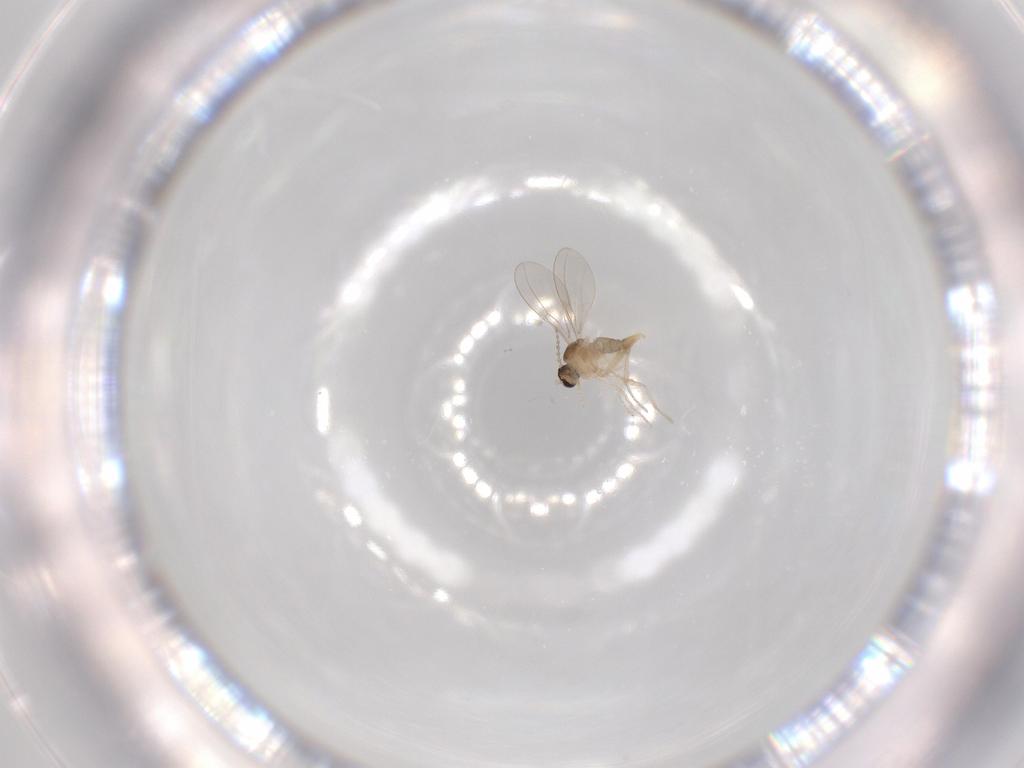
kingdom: Animalia
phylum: Arthropoda
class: Insecta
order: Diptera
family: Cecidomyiidae
